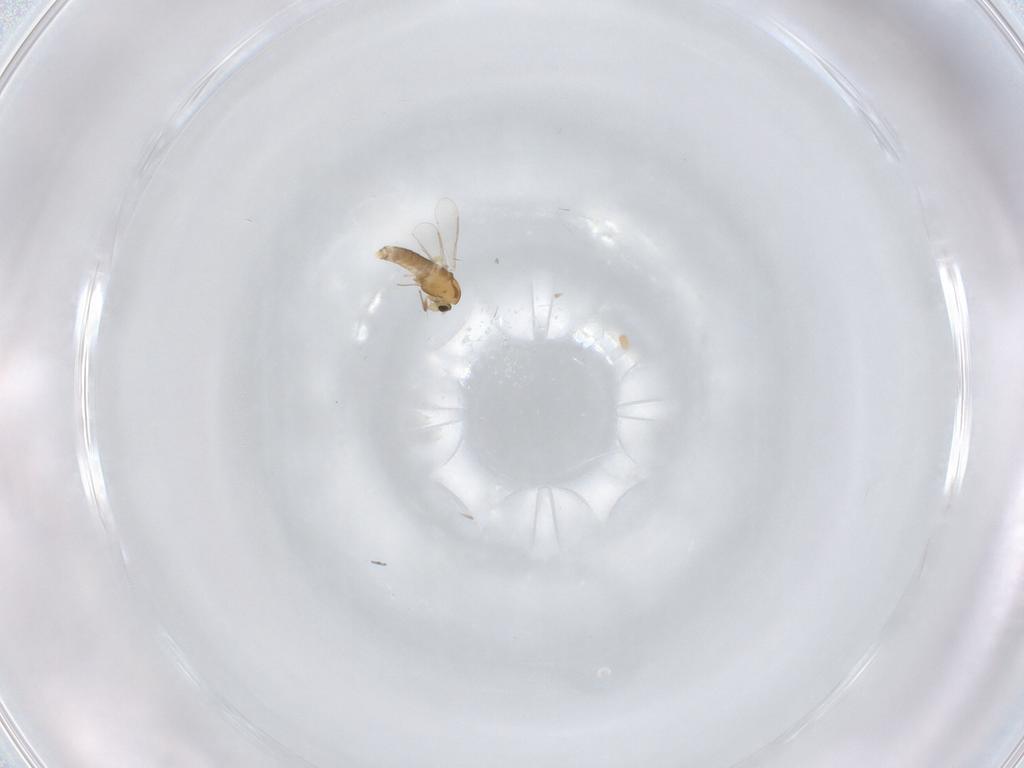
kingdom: Animalia
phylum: Arthropoda
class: Insecta
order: Diptera
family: Chironomidae
